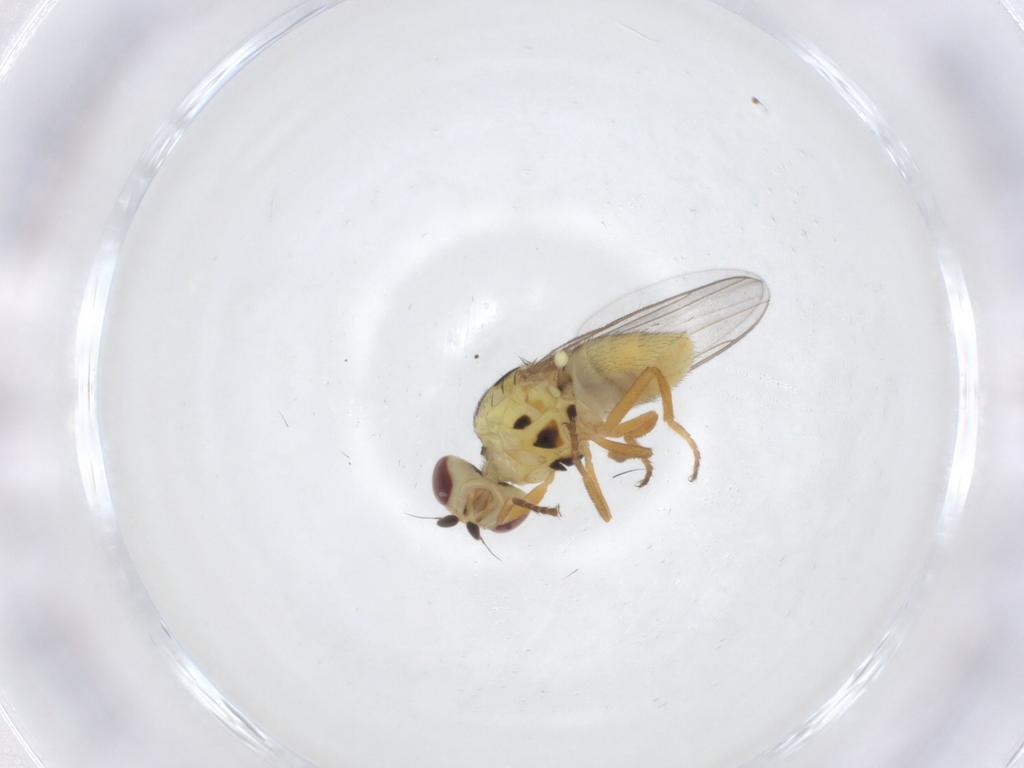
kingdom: Animalia
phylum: Arthropoda
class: Insecta
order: Diptera
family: Chloropidae
